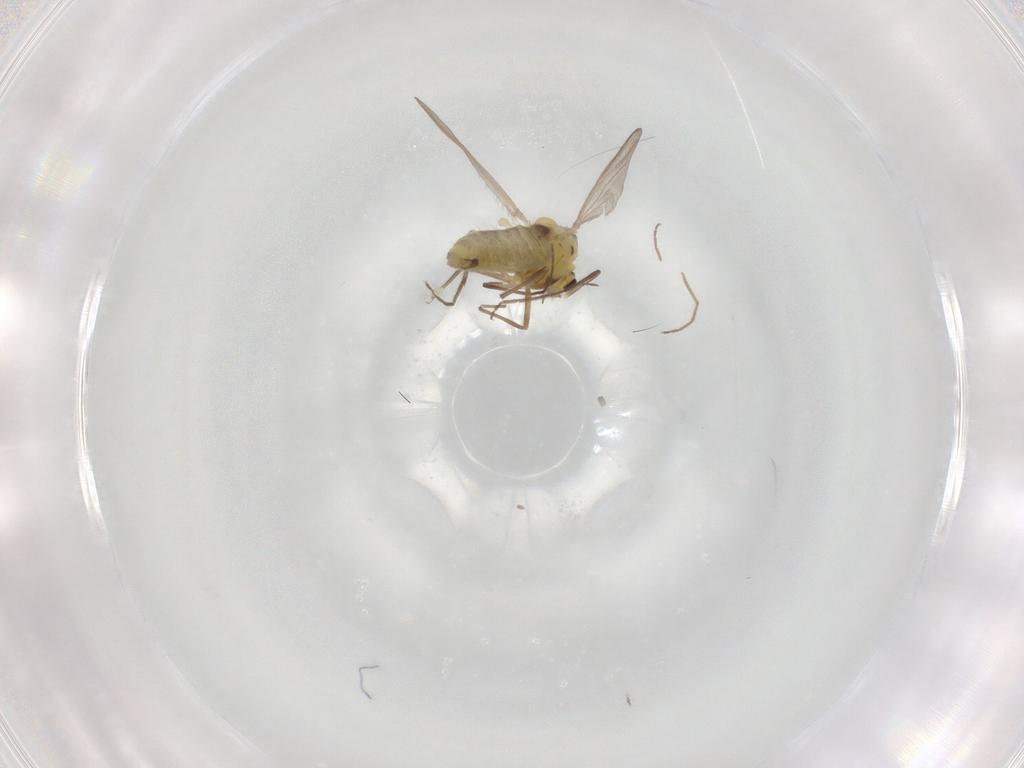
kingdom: Animalia
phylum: Arthropoda
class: Insecta
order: Diptera
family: Chironomidae
